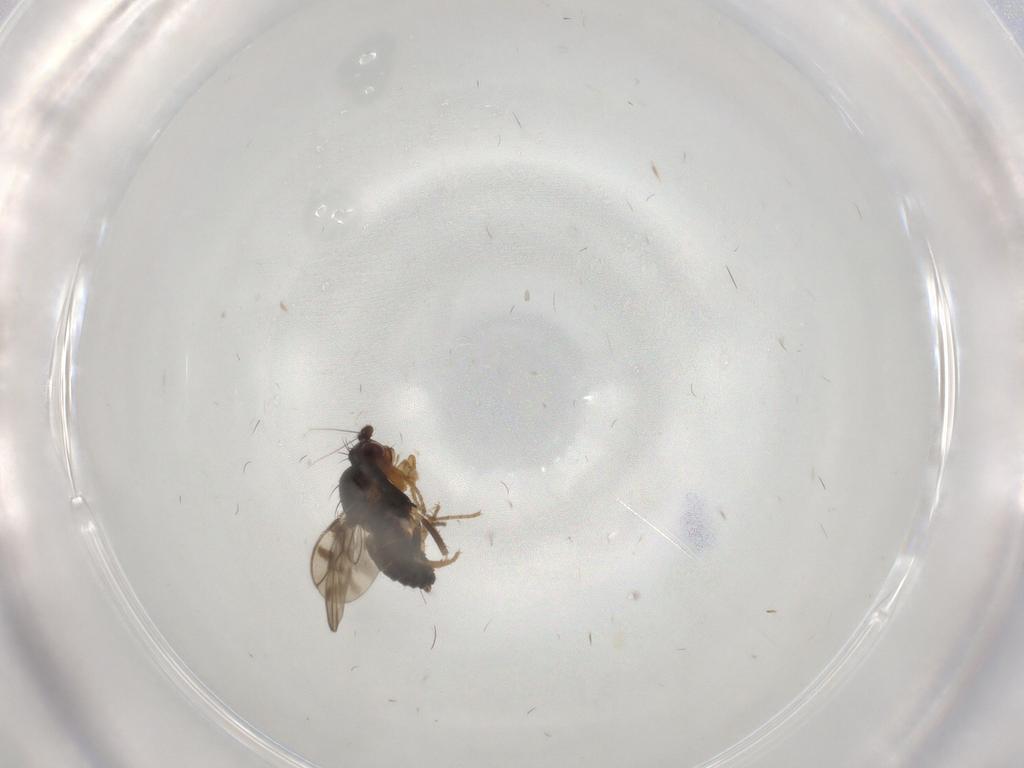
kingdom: Animalia
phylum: Arthropoda
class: Insecta
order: Diptera
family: Sphaeroceridae
